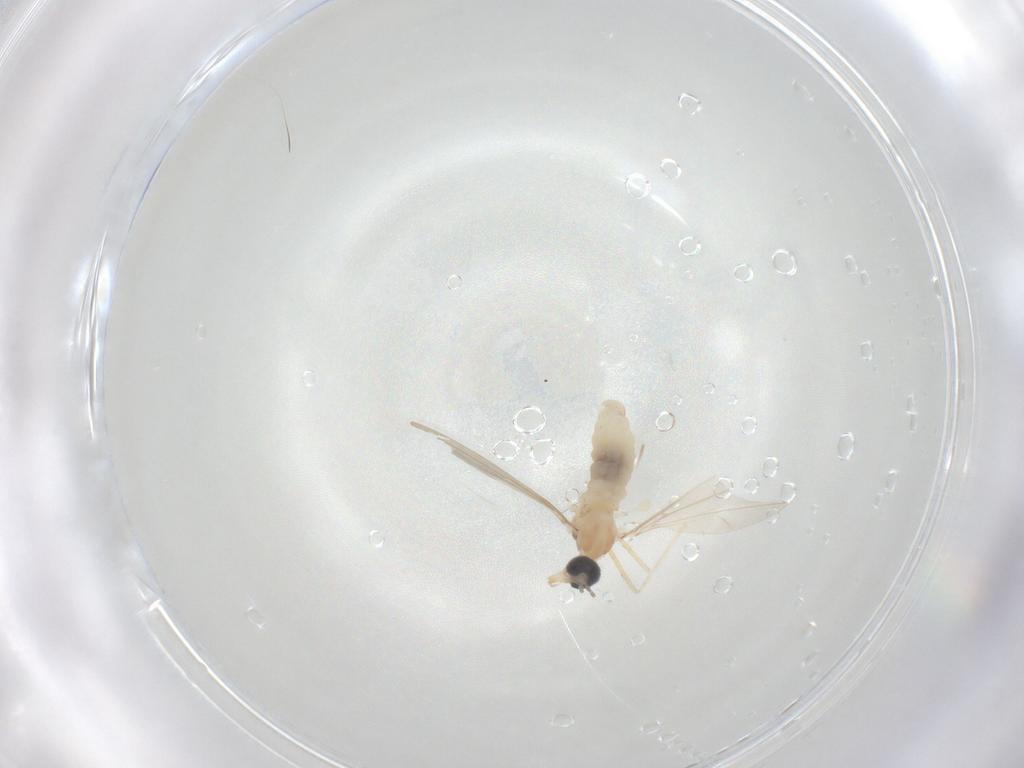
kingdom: Animalia
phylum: Arthropoda
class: Insecta
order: Diptera
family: Cecidomyiidae
